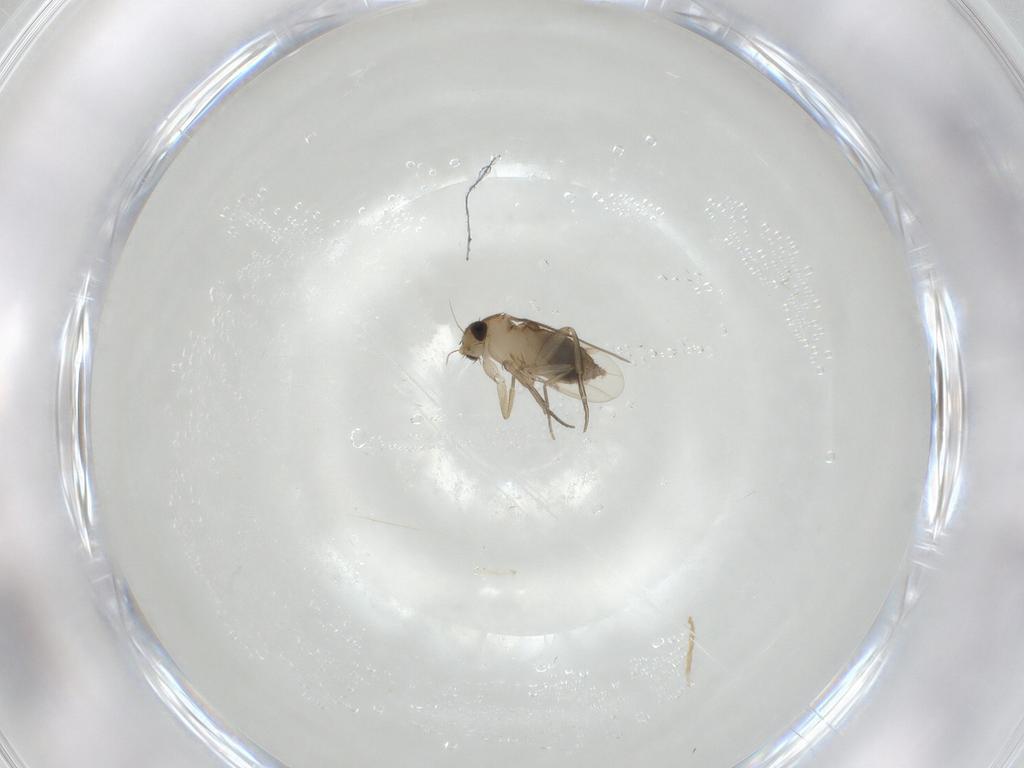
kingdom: Animalia
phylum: Arthropoda
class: Insecta
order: Diptera
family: Phoridae
